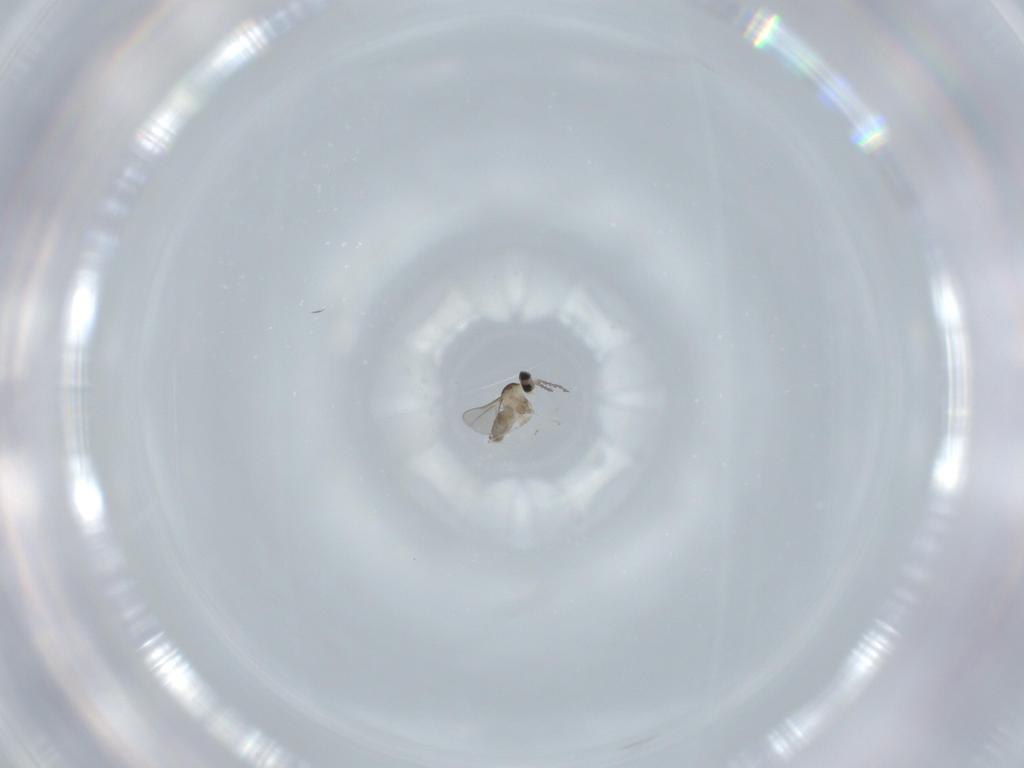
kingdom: Animalia
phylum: Arthropoda
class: Insecta
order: Diptera
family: Cecidomyiidae
